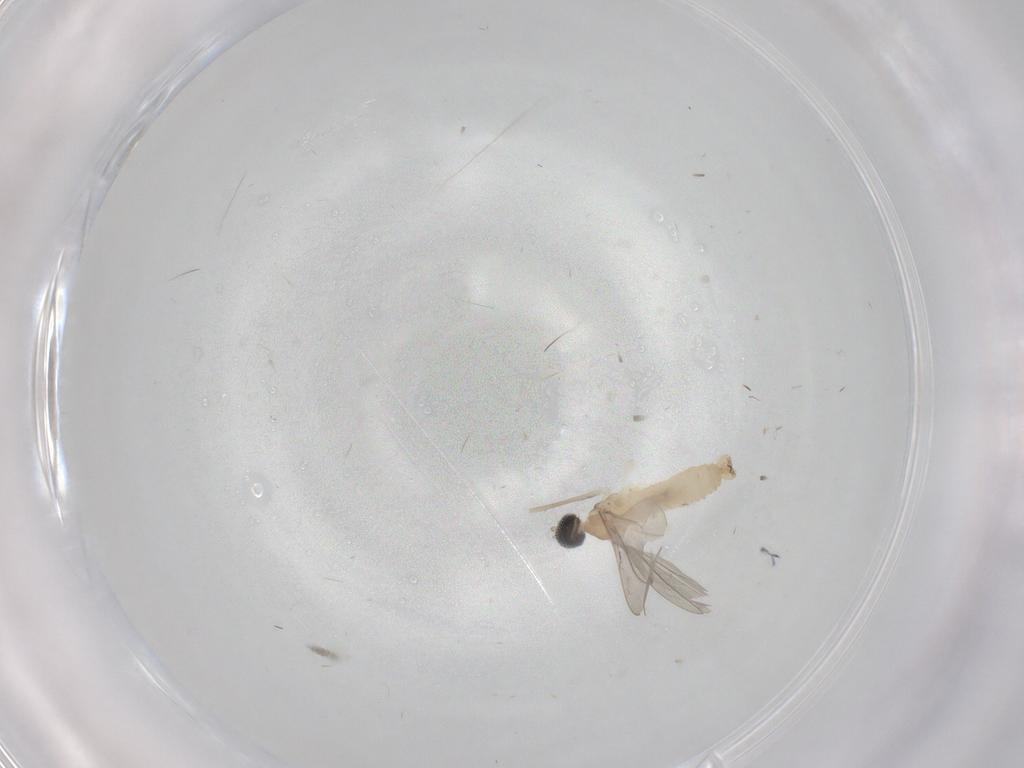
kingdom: Animalia
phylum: Arthropoda
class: Insecta
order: Diptera
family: Cecidomyiidae
